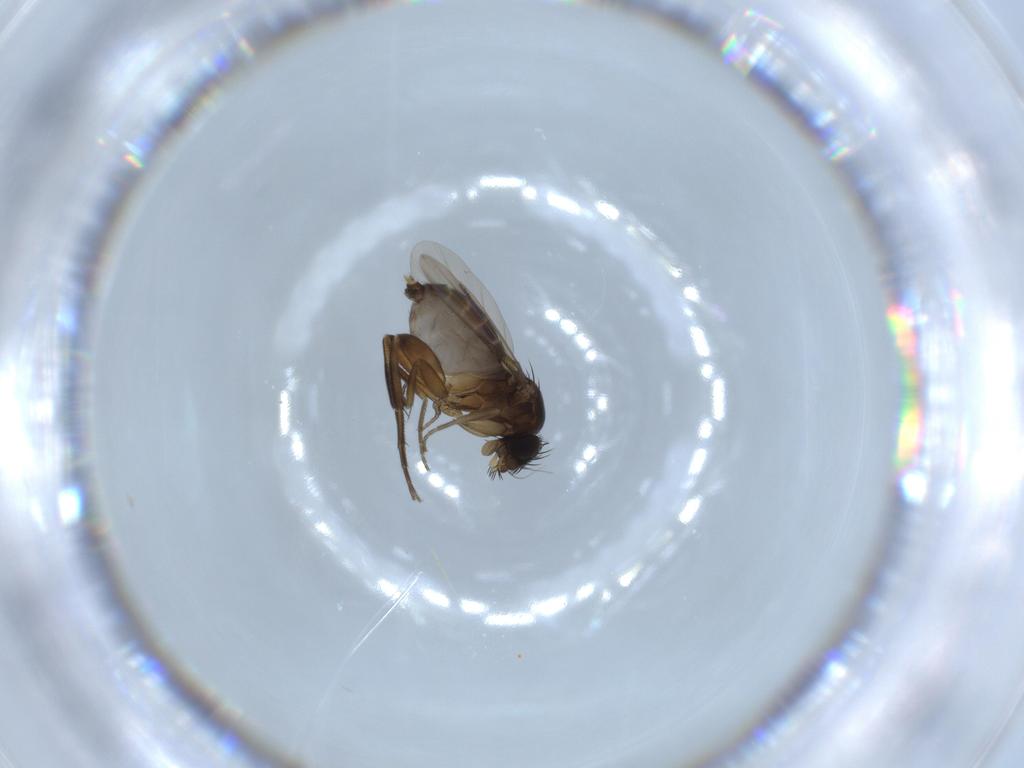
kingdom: Animalia
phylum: Arthropoda
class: Insecta
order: Diptera
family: Phoridae
